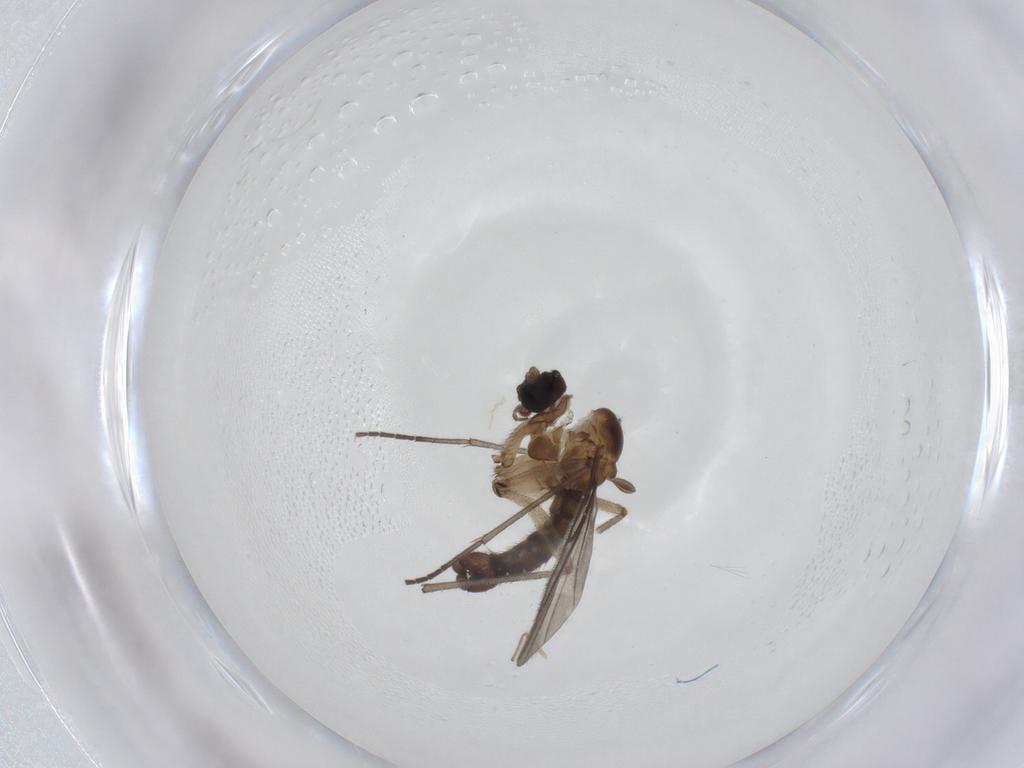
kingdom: Animalia
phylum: Arthropoda
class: Insecta
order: Diptera
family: Sciaridae
